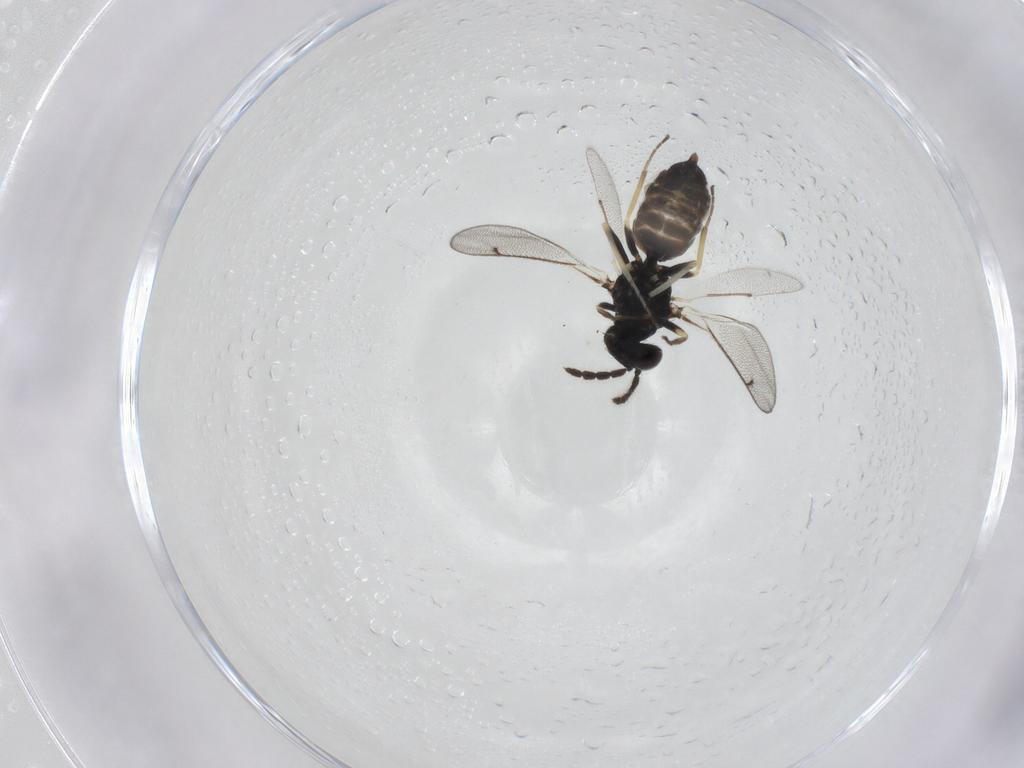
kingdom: Animalia
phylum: Arthropoda
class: Insecta
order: Hymenoptera
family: Eulophidae
